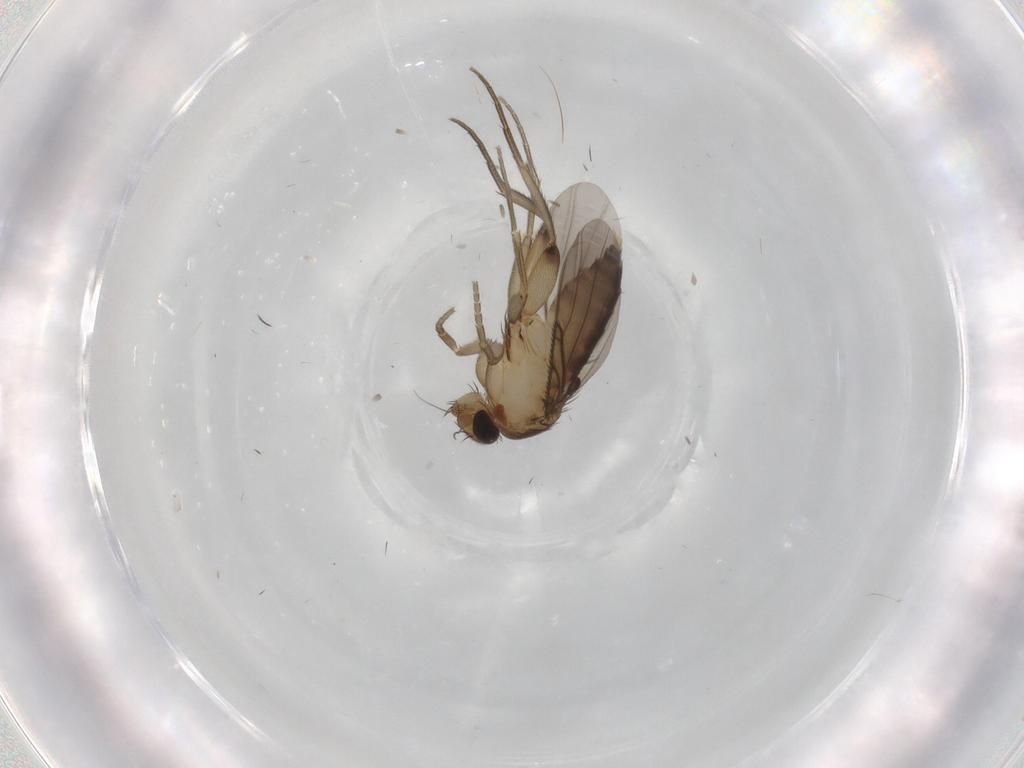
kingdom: Animalia
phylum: Arthropoda
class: Insecta
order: Diptera
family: Phoridae
